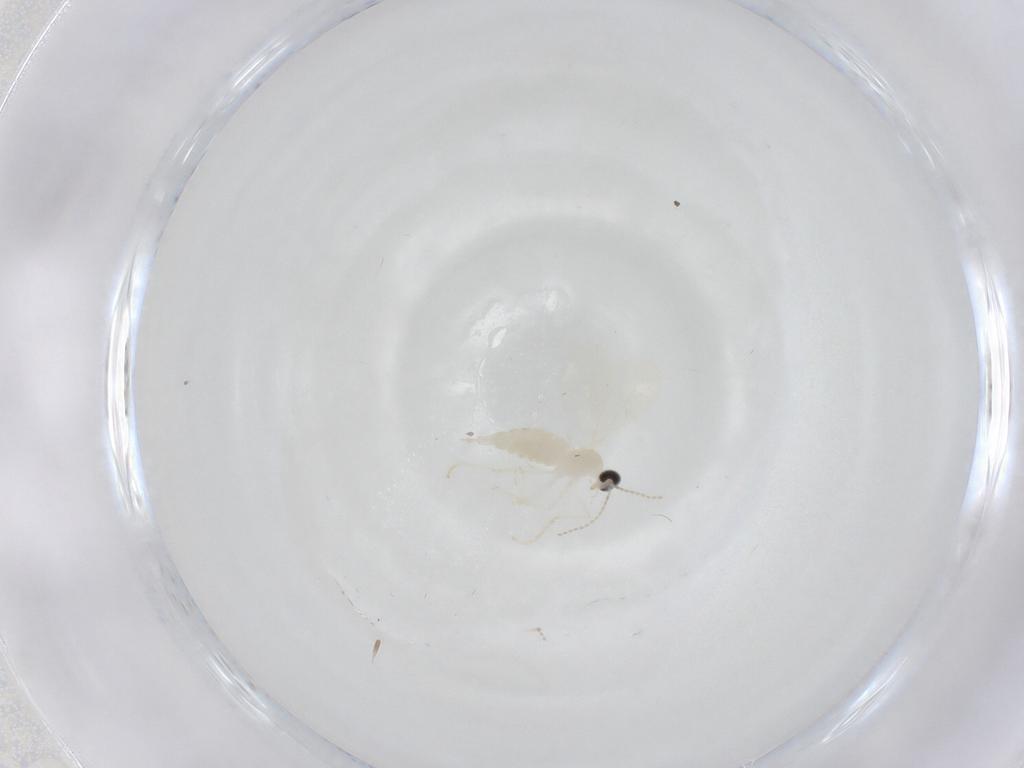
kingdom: Animalia
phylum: Arthropoda
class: Insecta
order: Diptera
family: Cecidomyiidae
